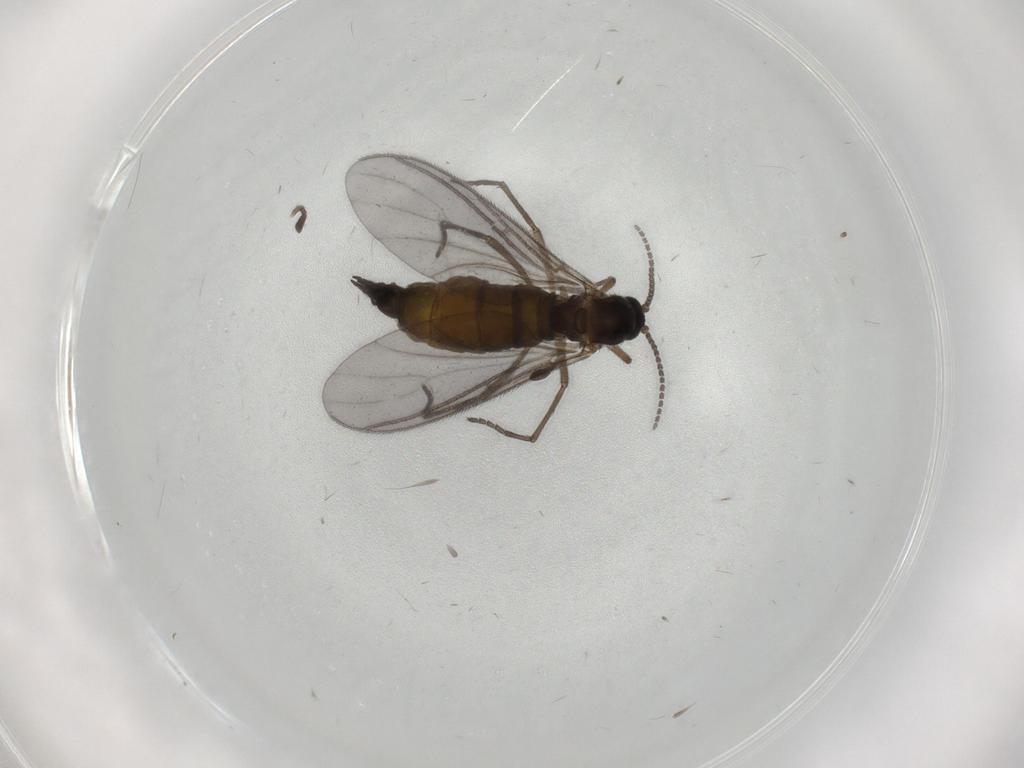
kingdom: Animalia
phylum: Arthropoda
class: Insecta
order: Diptera
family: Sciaridae
